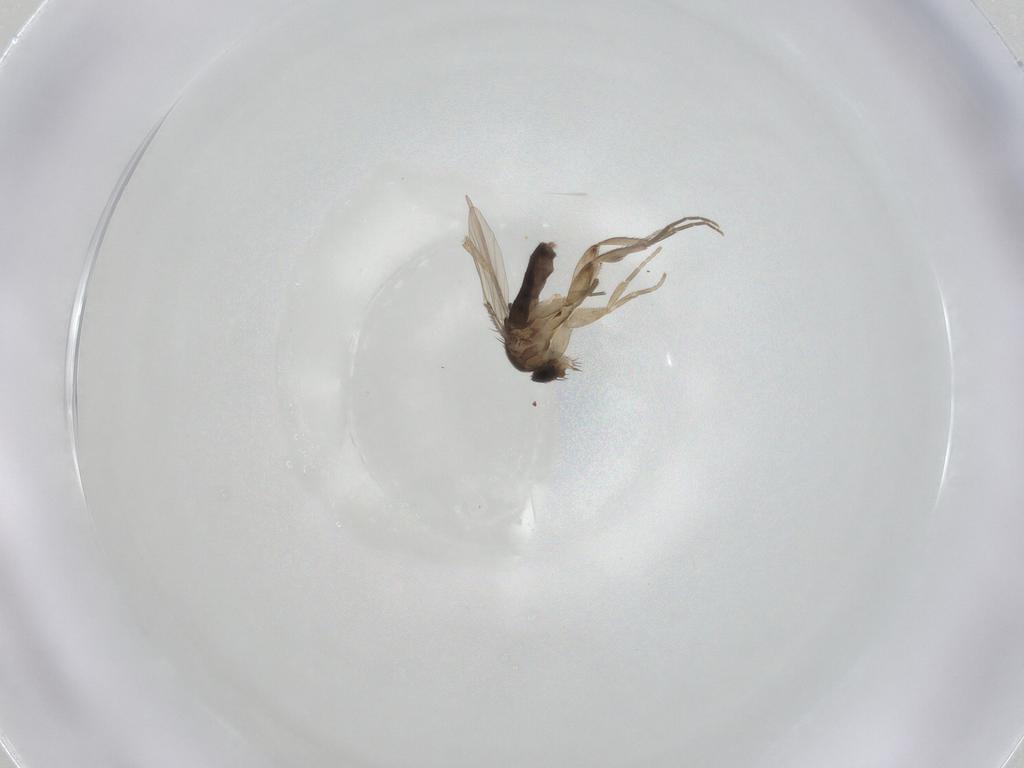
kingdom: Animalia
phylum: Arthropoda
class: Insecta
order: Diptera
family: Phoridae
